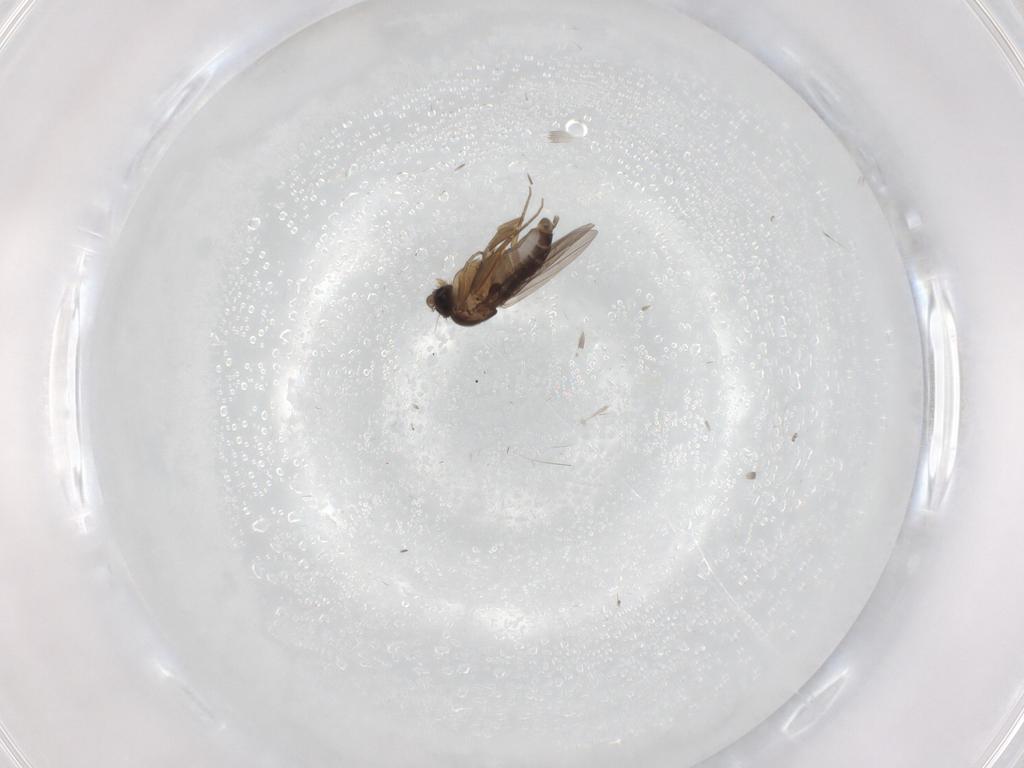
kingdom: Animalia
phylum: Arthropoda
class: Insecta
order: Diptera
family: Phoridae
